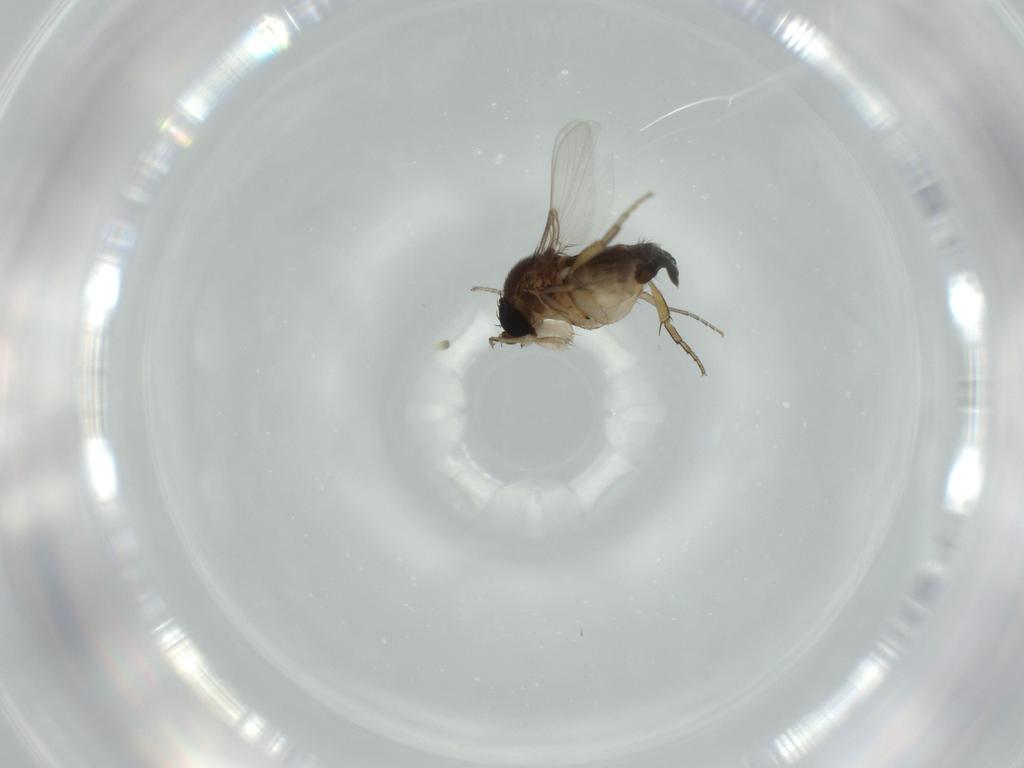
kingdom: Animalia
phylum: Arthropoda
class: Insecta
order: Diptera
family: Phoridae
